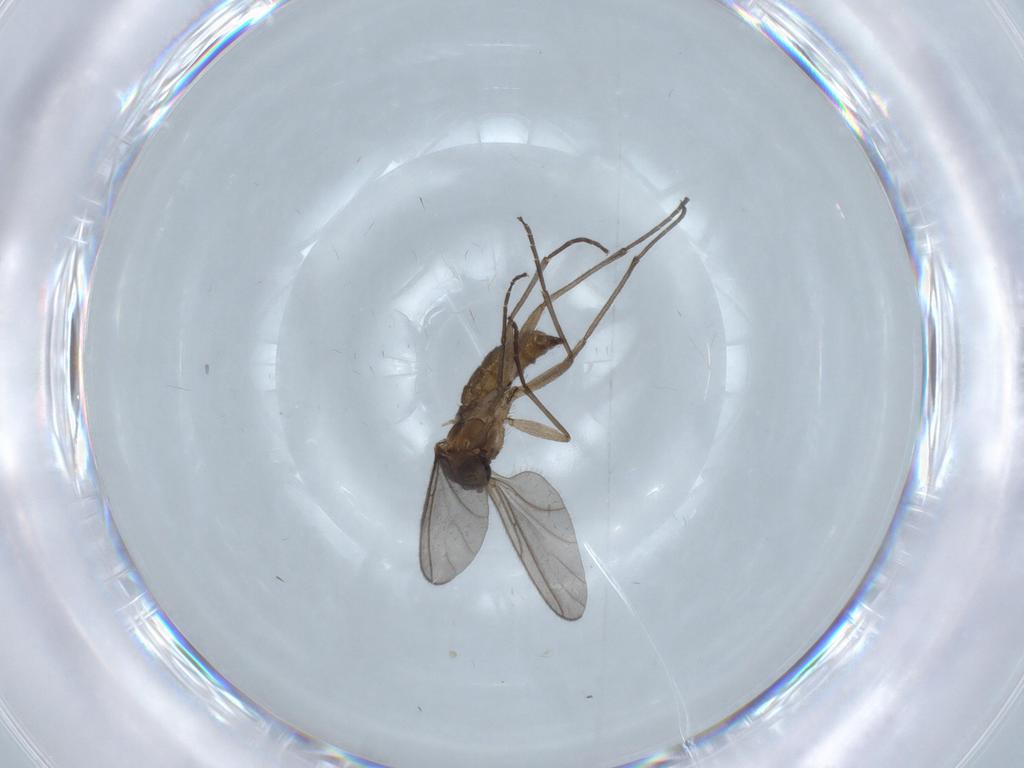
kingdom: Animalia
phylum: Arthropoda
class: Insecta
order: Diptera
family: Sciaridae
